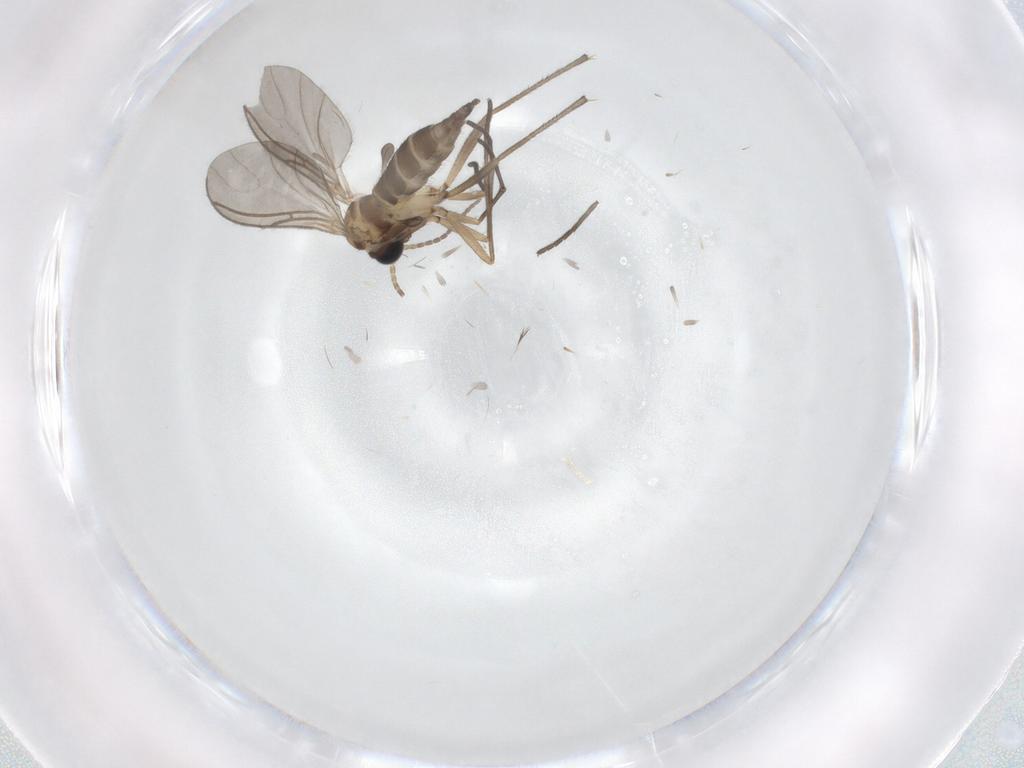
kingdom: Animalia
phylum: Arthropoda
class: Insecta
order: Diptera
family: Sciaridae
